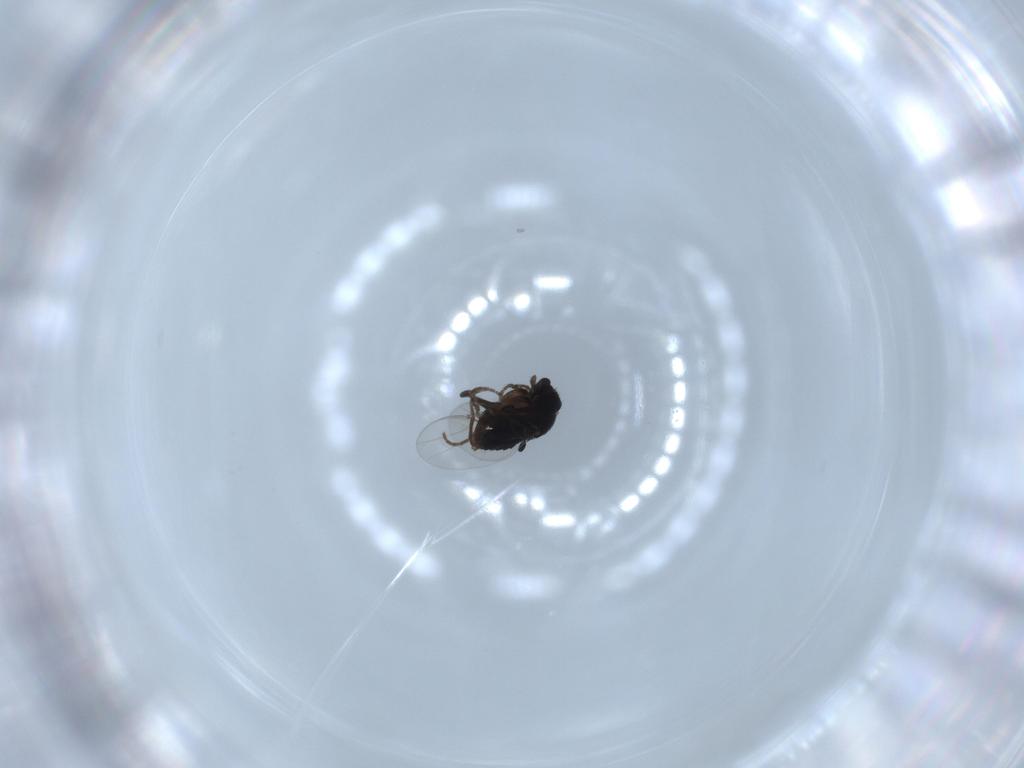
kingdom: Animalia
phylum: Arthropoda
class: Insecta
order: Diptera
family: Phoridae
